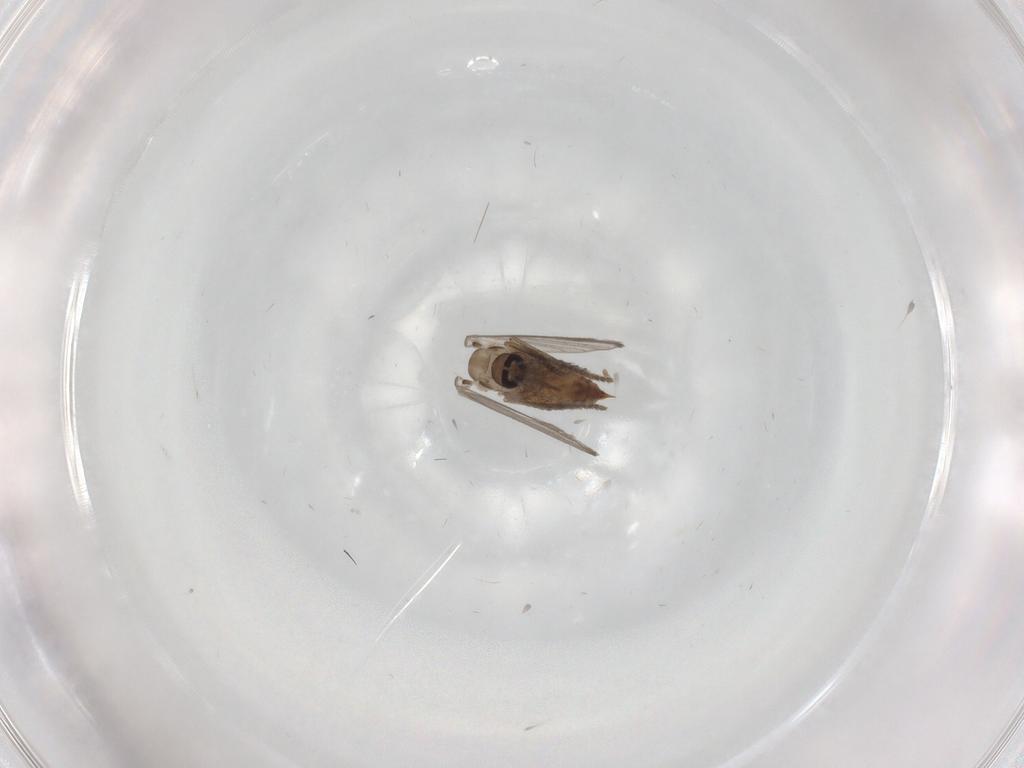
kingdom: Animalia
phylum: Arthropoda
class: Insecta
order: Diptera
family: Psychodidae
